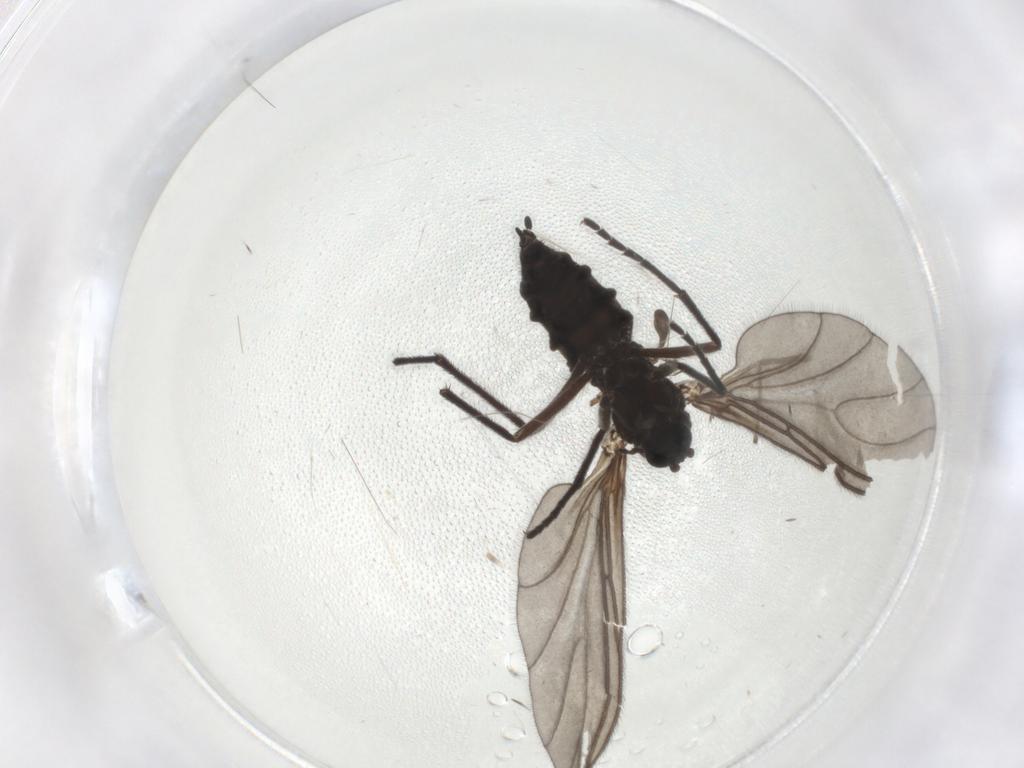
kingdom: Animalia
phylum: Arthropoda
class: Insecta
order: Diptera
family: Sciaridae
